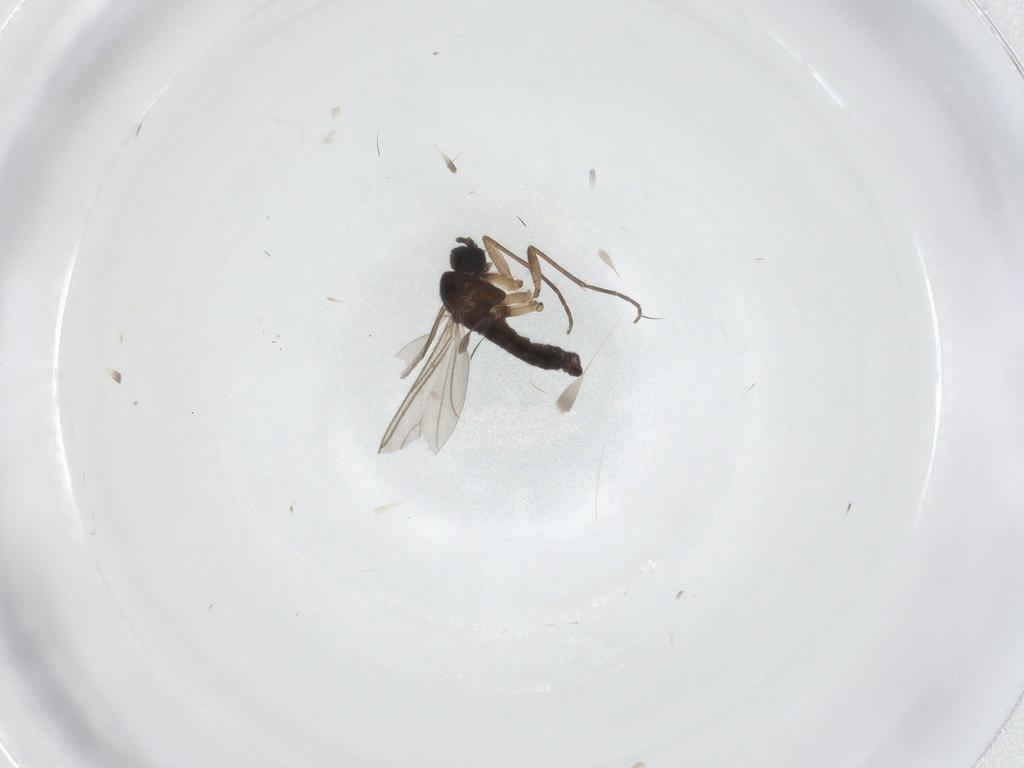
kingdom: Animalia
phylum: Arthropoda
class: Insecta
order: Diptera
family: Sciaridae
